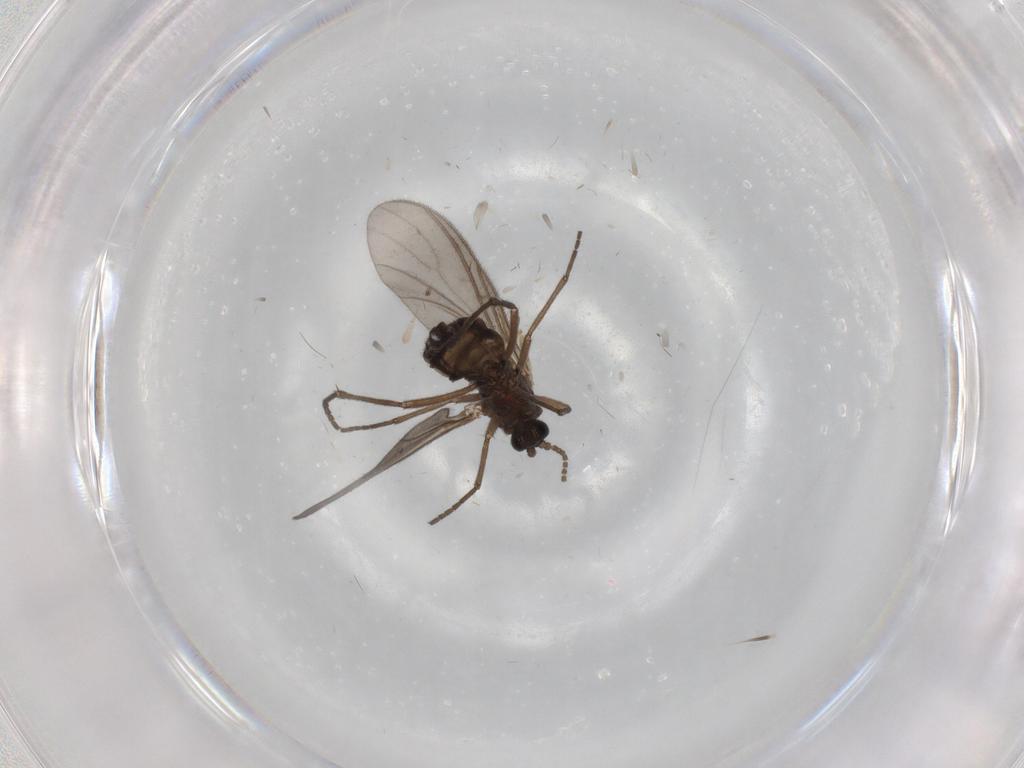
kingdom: Animalia
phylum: Arthropoda
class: Insecta
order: Diptera
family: Sciaridae
